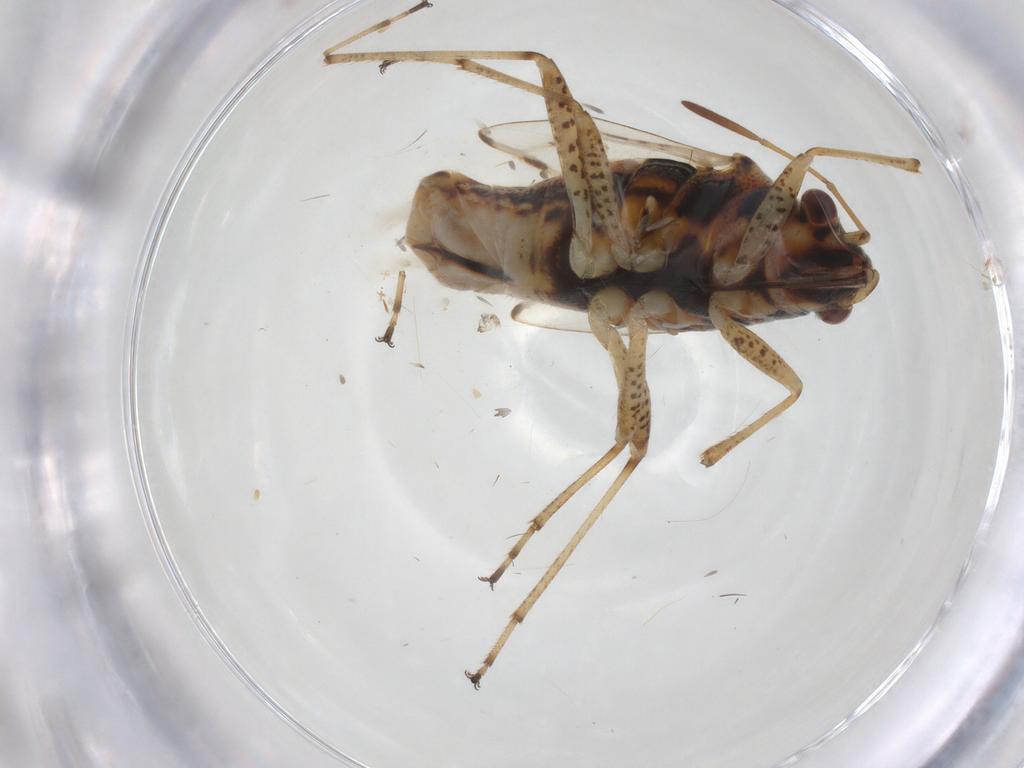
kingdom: Animalia
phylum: Arthropoda
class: Insecta
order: Hemiptera
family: Lygaeidae
